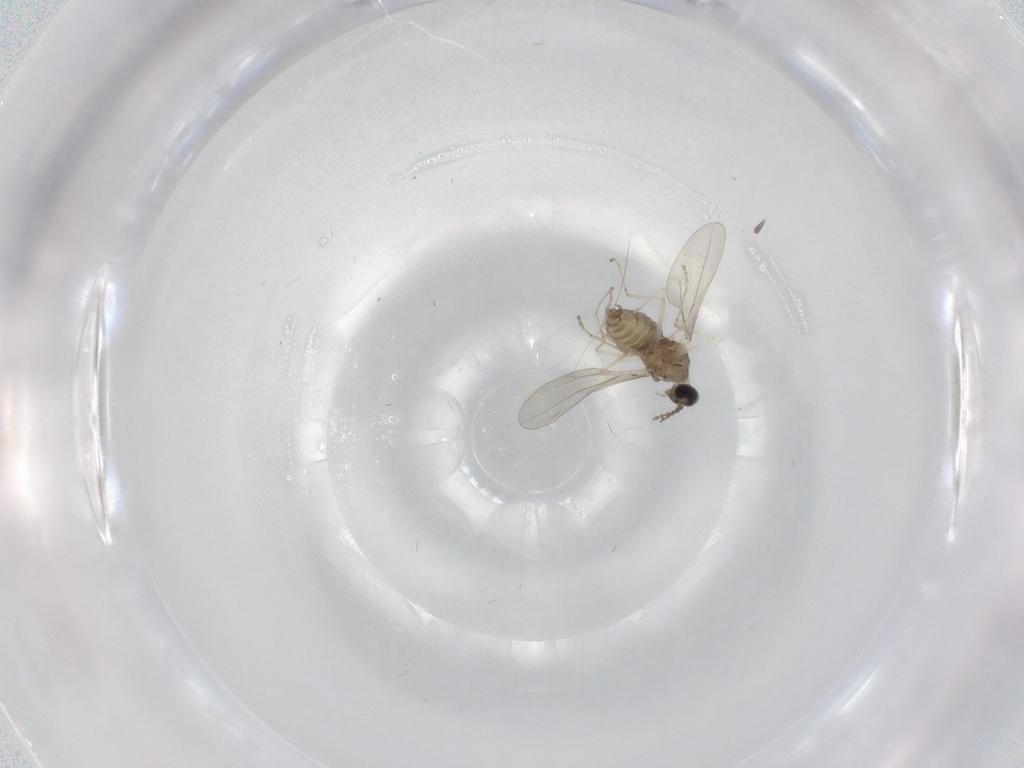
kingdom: Animalia
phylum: Arthropoda
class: Insecta
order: Diptera
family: Cecidomyiidae
